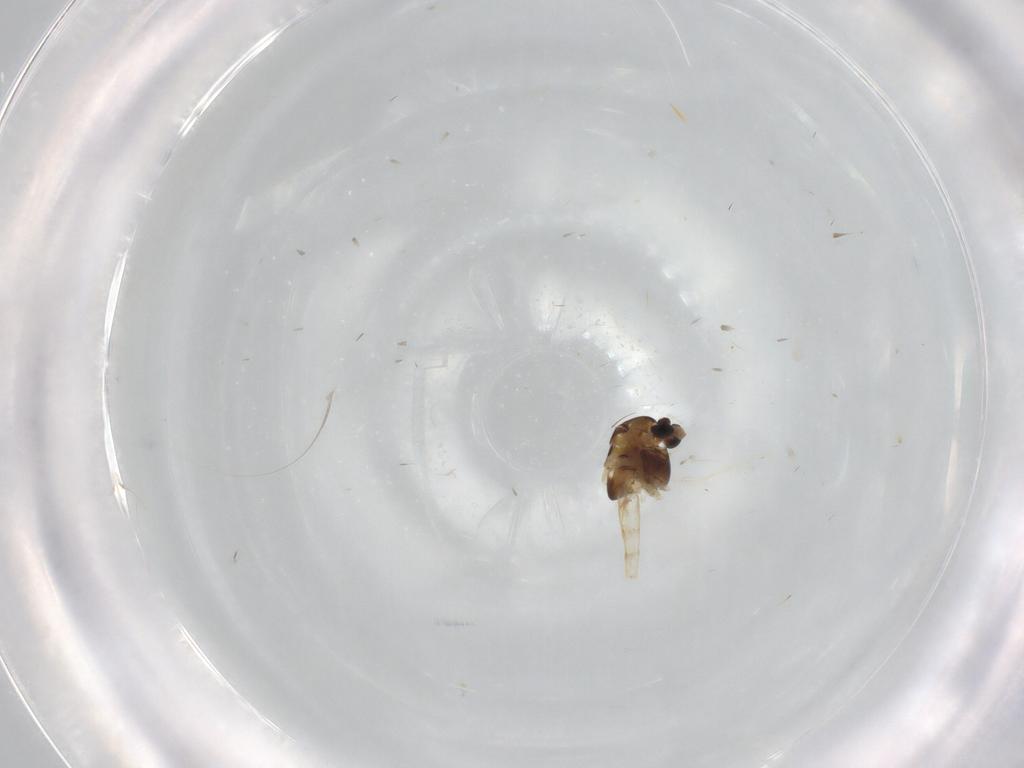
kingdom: Animalia
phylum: Arthropoda
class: Insecta
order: Diptera
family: Chironomidae
